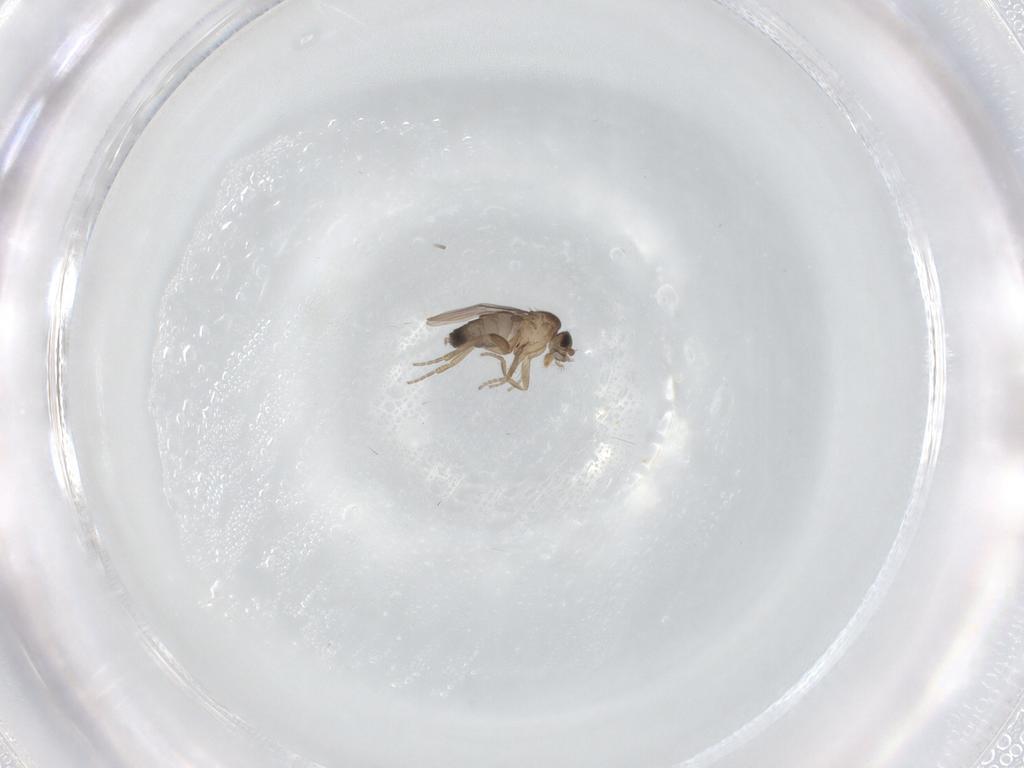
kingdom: Animalia
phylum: Arthropoda
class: Insecta
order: Diptera
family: Phoridae
